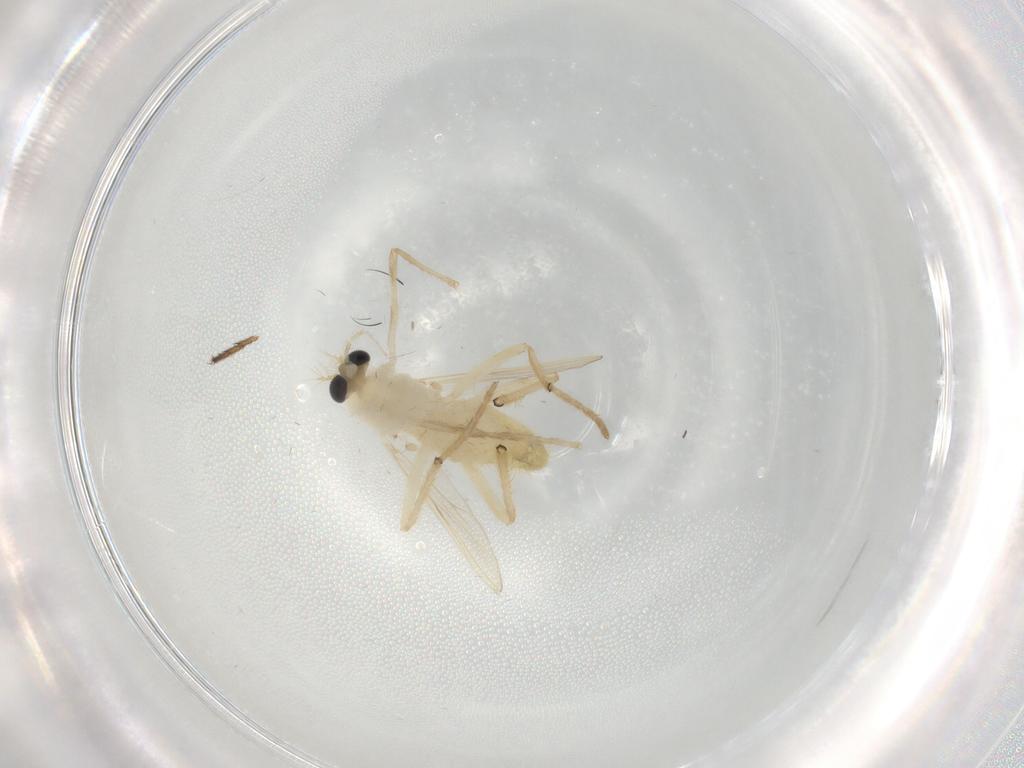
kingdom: Animalia
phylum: Arthropoda
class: Insecta
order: Diptera
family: Chironomidae
